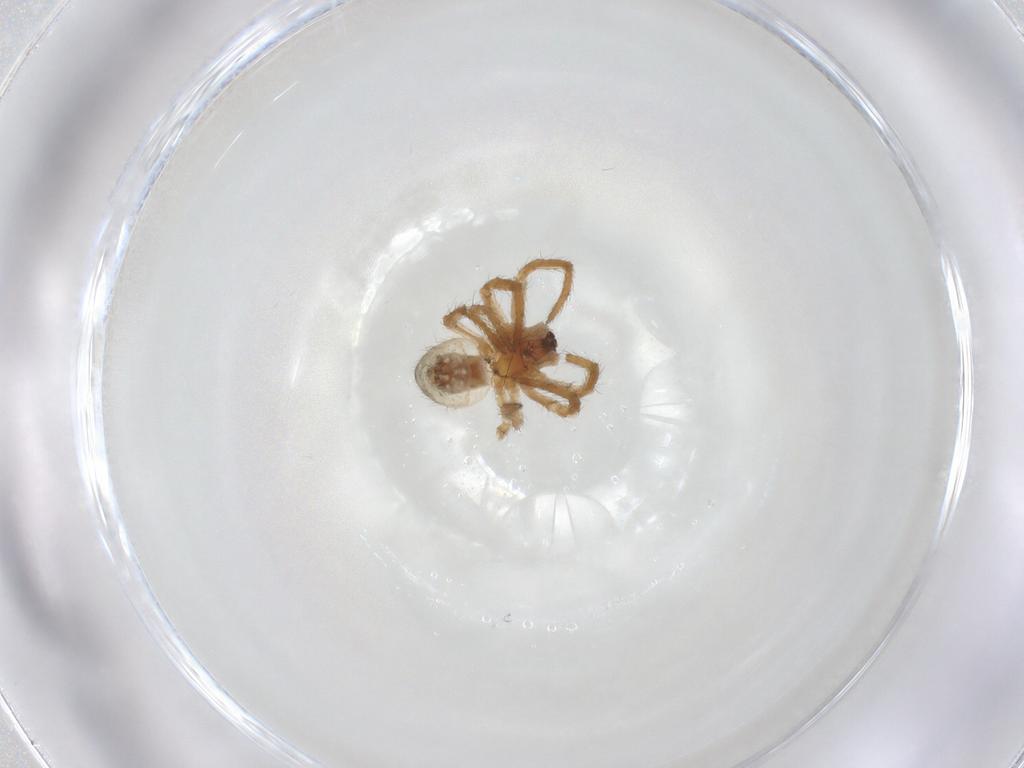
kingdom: Animalia
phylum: Arthropoda
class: Arachnida
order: Araneae
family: Araneidae
